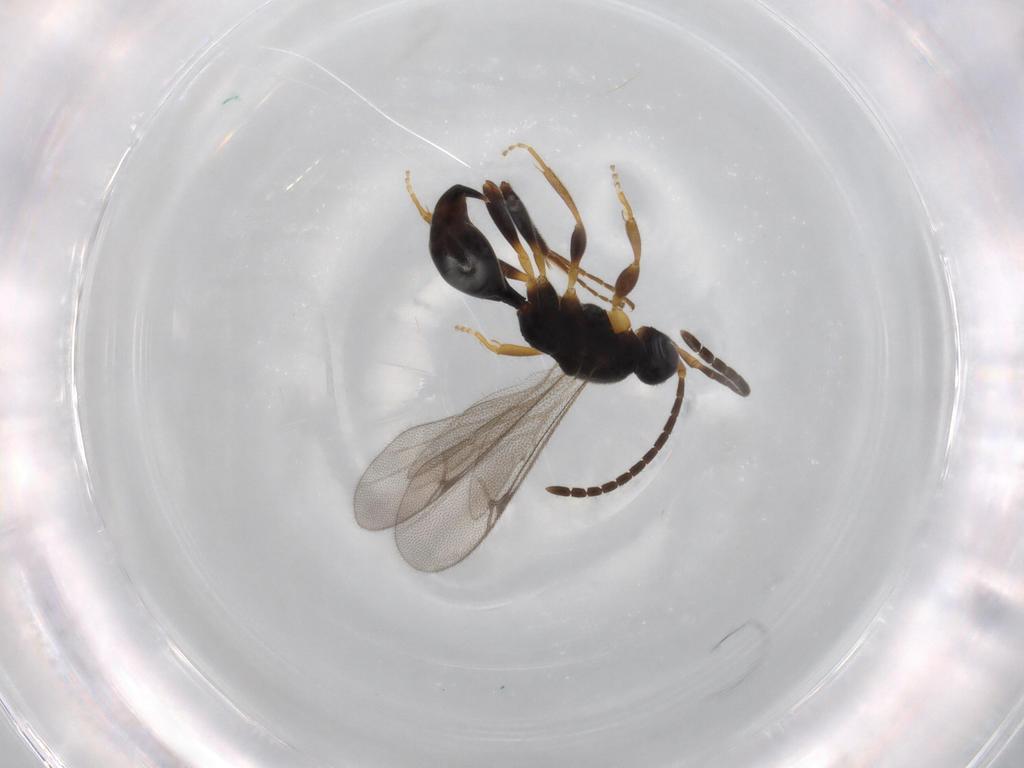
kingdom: Animalia
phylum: Arthropoda
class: Insecta
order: Hymenoptera
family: Proctotrupidae
